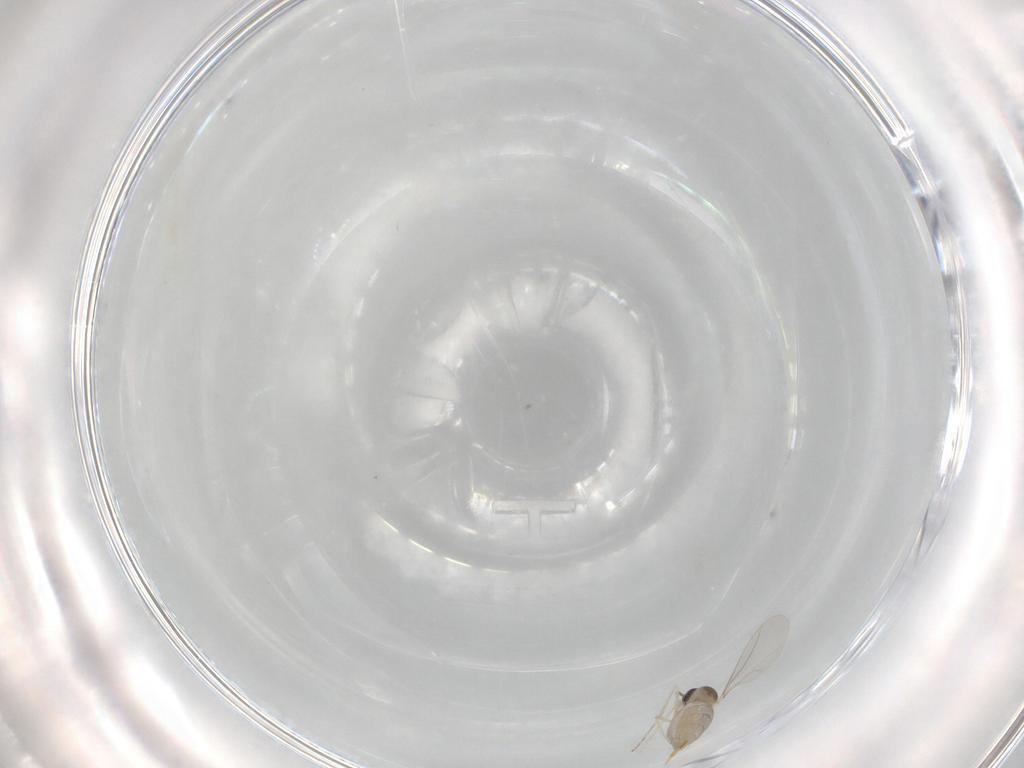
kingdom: Animalia
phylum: Arthropoda
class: Insecta
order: Diptera
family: Cecidomyiidae
